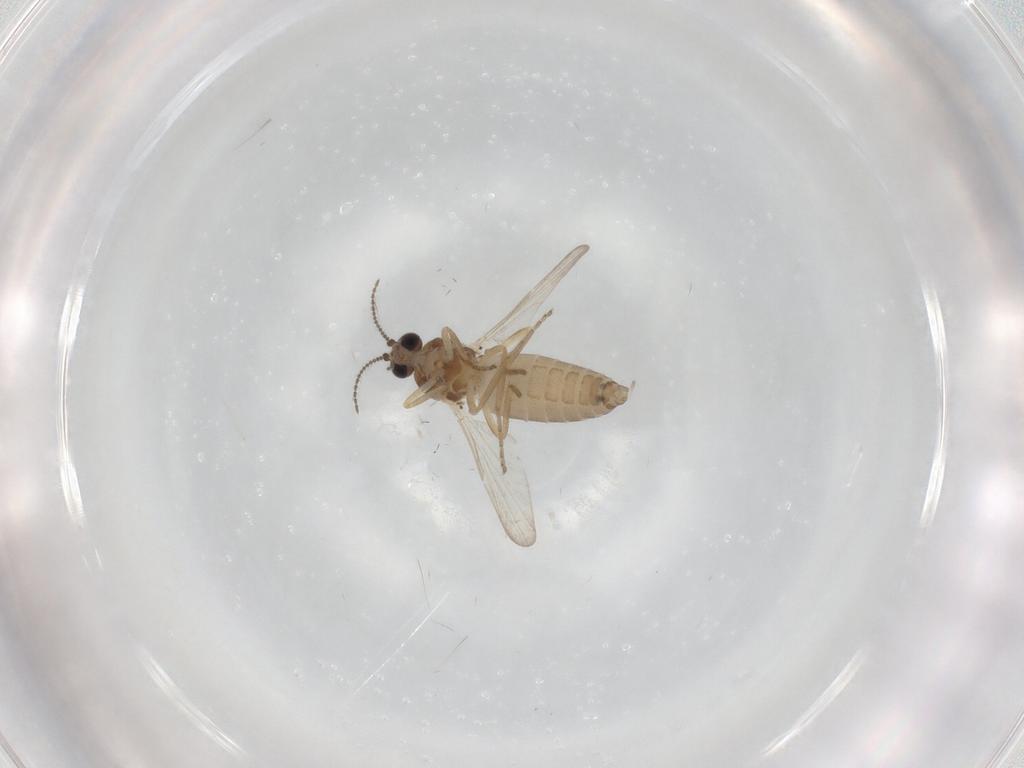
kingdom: Animalia
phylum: Arthropoda
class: Insecta
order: Diptera
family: Ceratopogonidae
